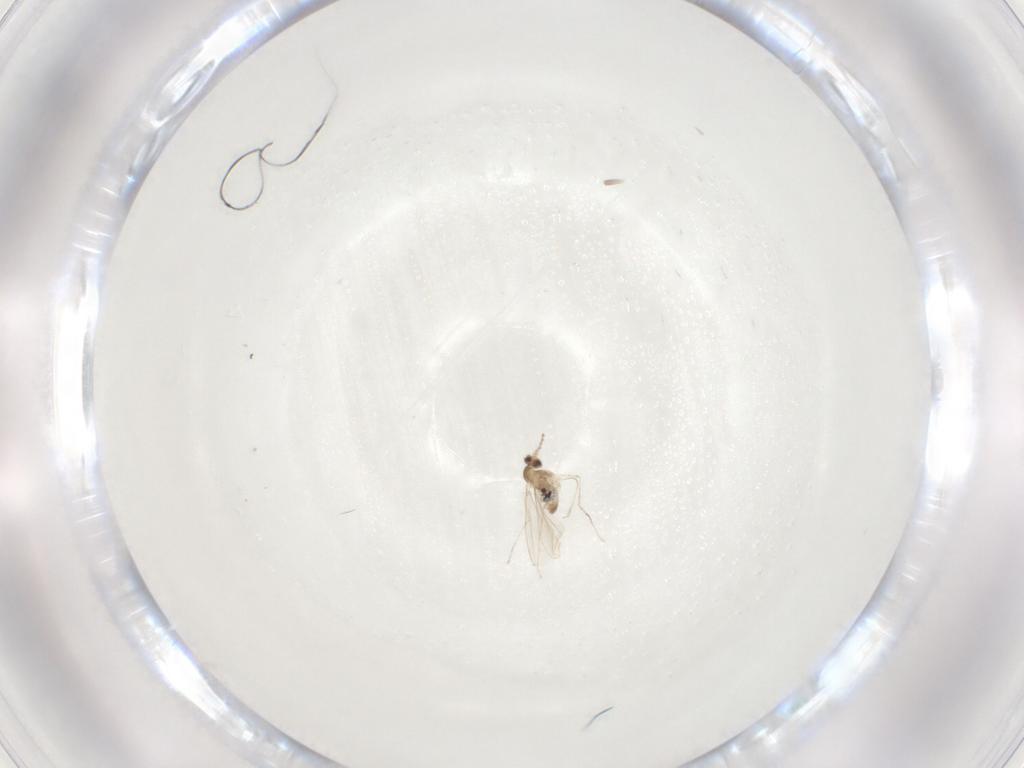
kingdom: Animalia
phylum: Arthropoda
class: Insecta
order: Diptera
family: Cecidomyiidae
